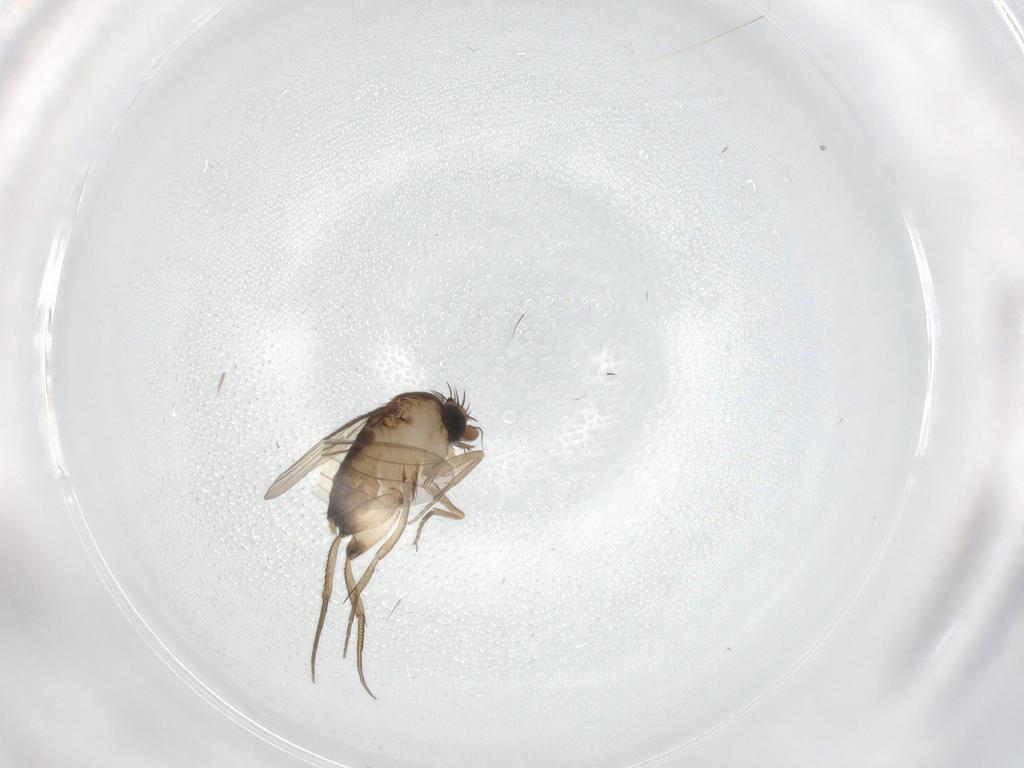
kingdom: Animalia
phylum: Arthropoda
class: Insecta
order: Diptera
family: Phoridae
